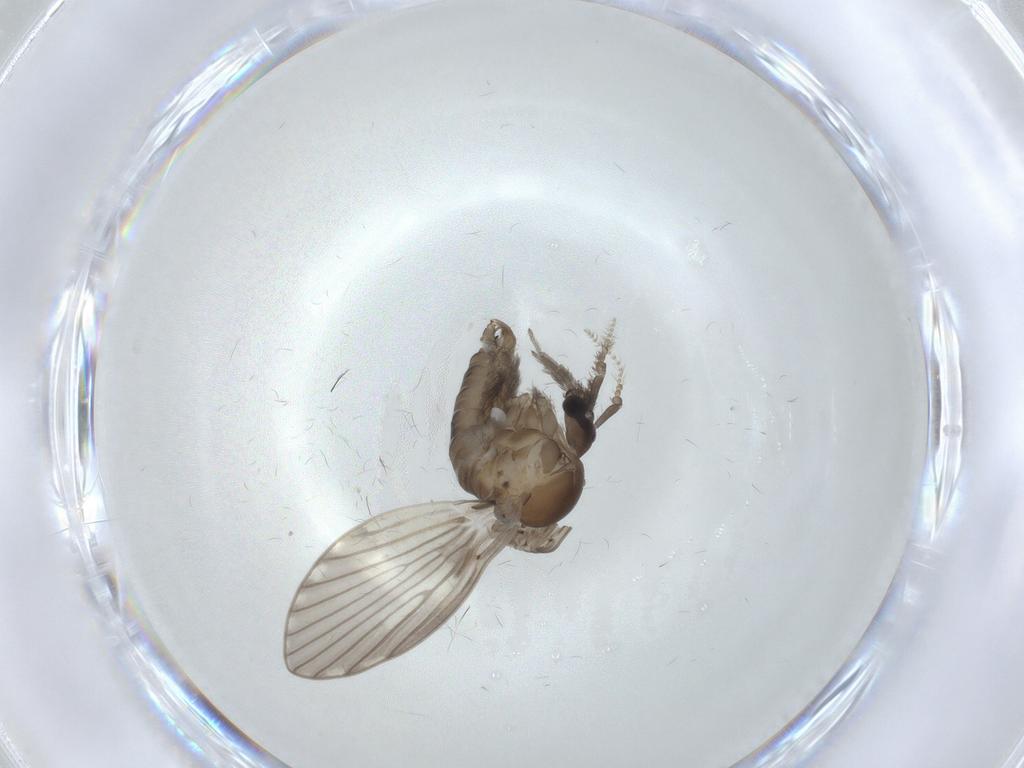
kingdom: Animalia
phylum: Arthropoda
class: Insecta
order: Diptera
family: Psychodidae
